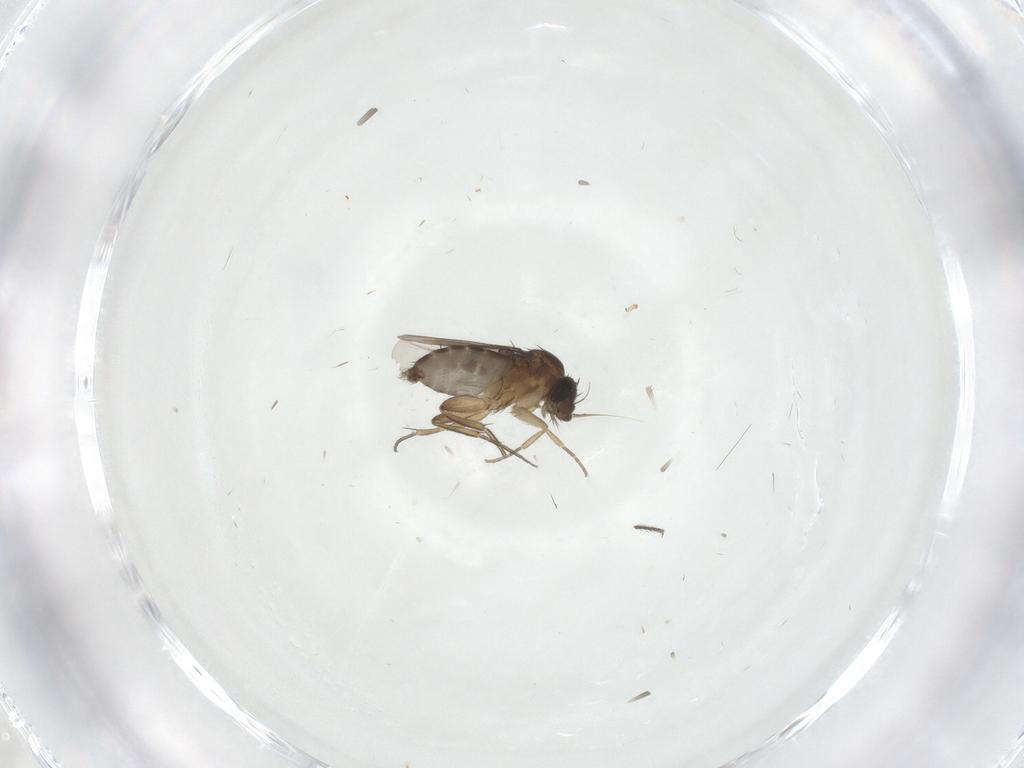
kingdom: Animalia
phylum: Arthropoda
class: Insecta
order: Diptera
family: Phoridae
